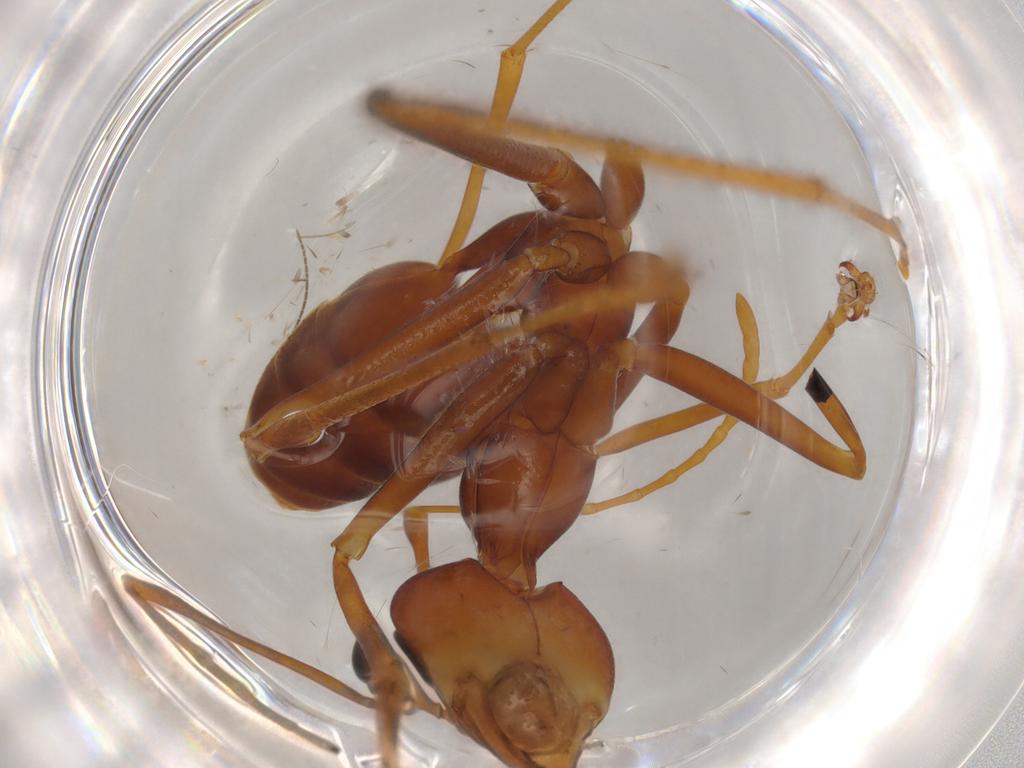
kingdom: Animalia
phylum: Arthropoda
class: Insecta
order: Hymenoptera
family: Formicidae
